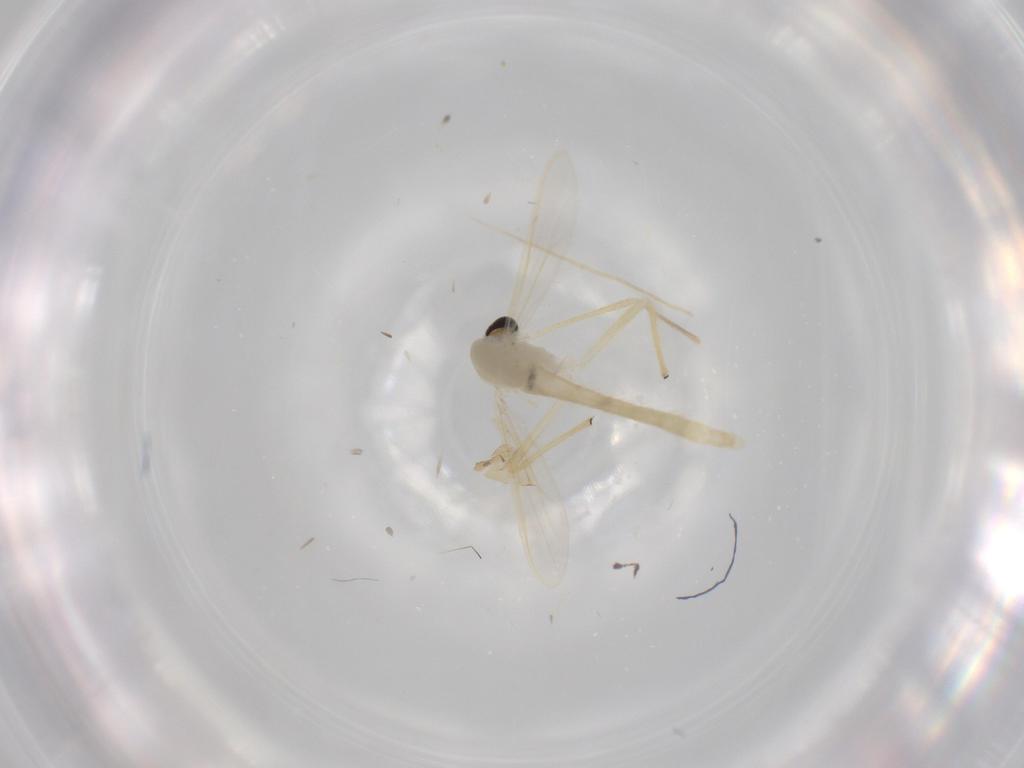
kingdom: Animalia
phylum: Arthropoda
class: Insecta
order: Diptera
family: Chironomidae
